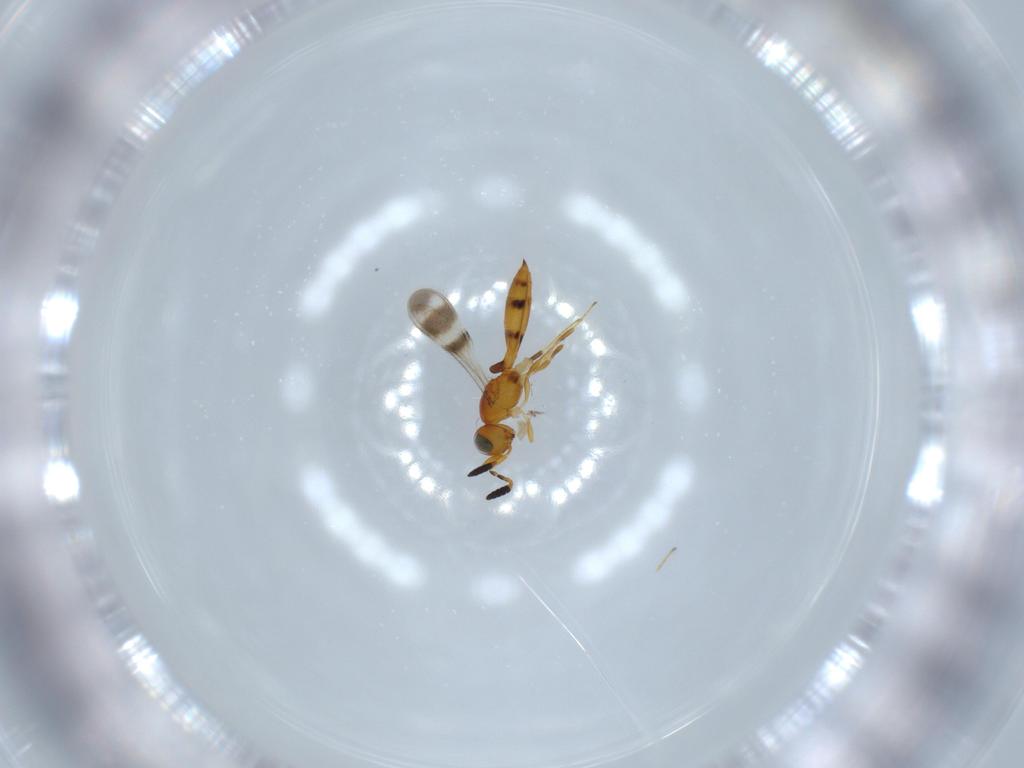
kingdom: Animalia
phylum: Arthropoda
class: Insecta
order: Hymenoptera
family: Scelionidae
